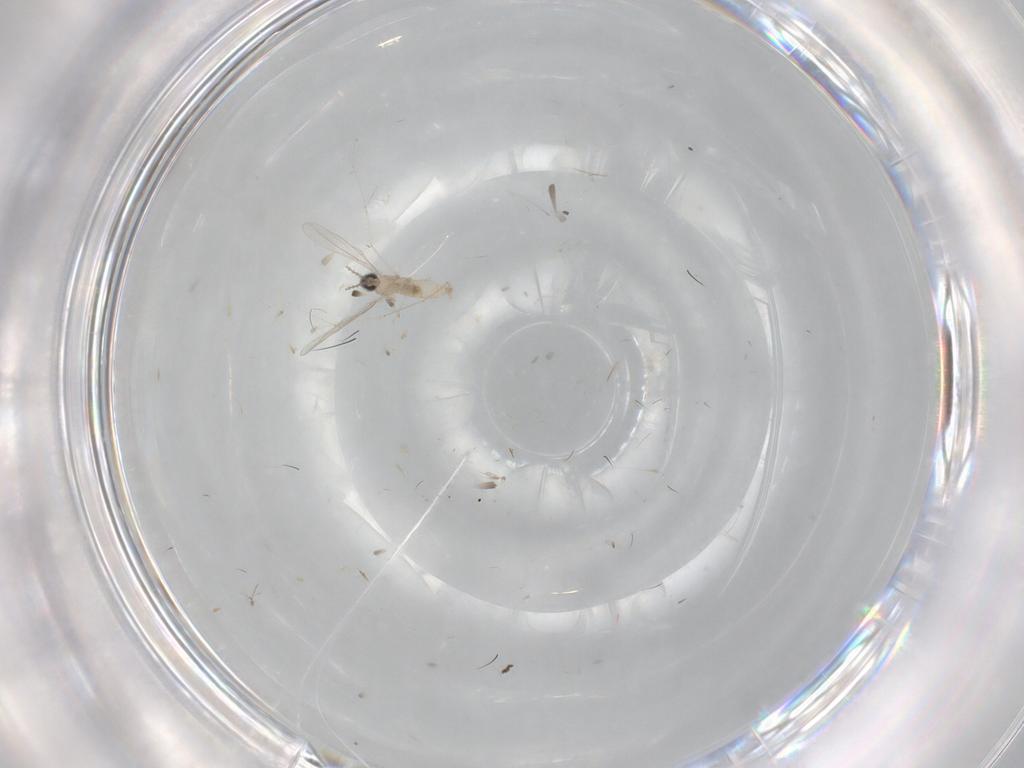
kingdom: Animalia
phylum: Arthropoda
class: Insecta
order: Diptera
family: Cecidomyiidae
